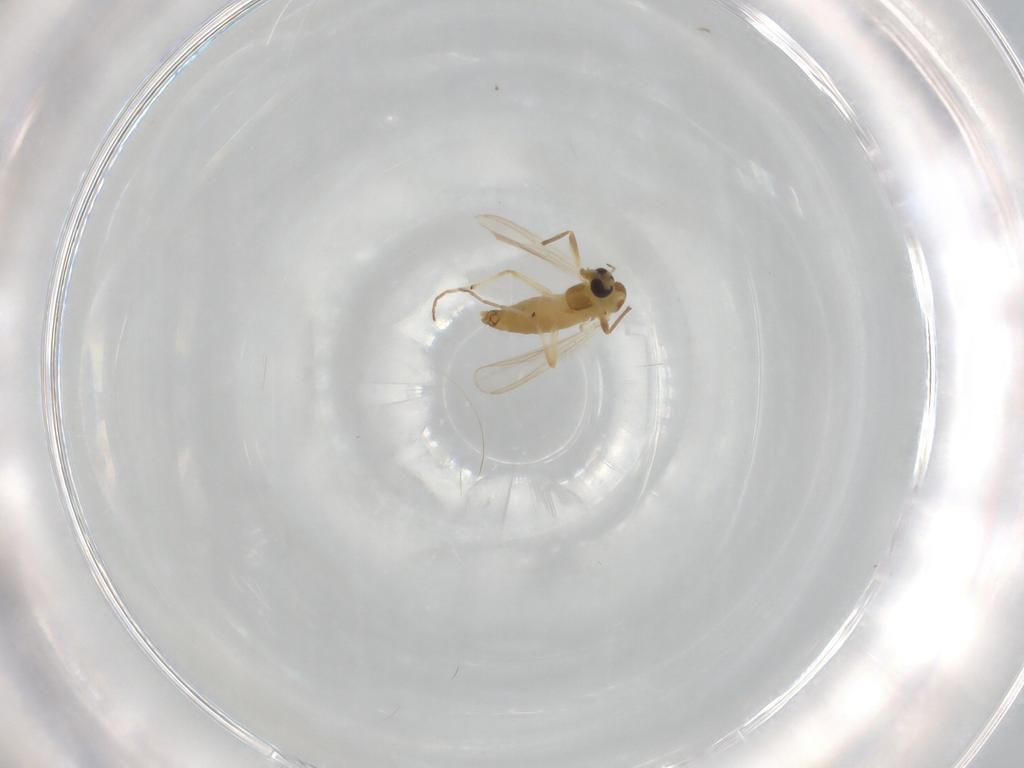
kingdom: Animalia
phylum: Arthropoda
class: Insecta
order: Diptera
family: Chironomidae
